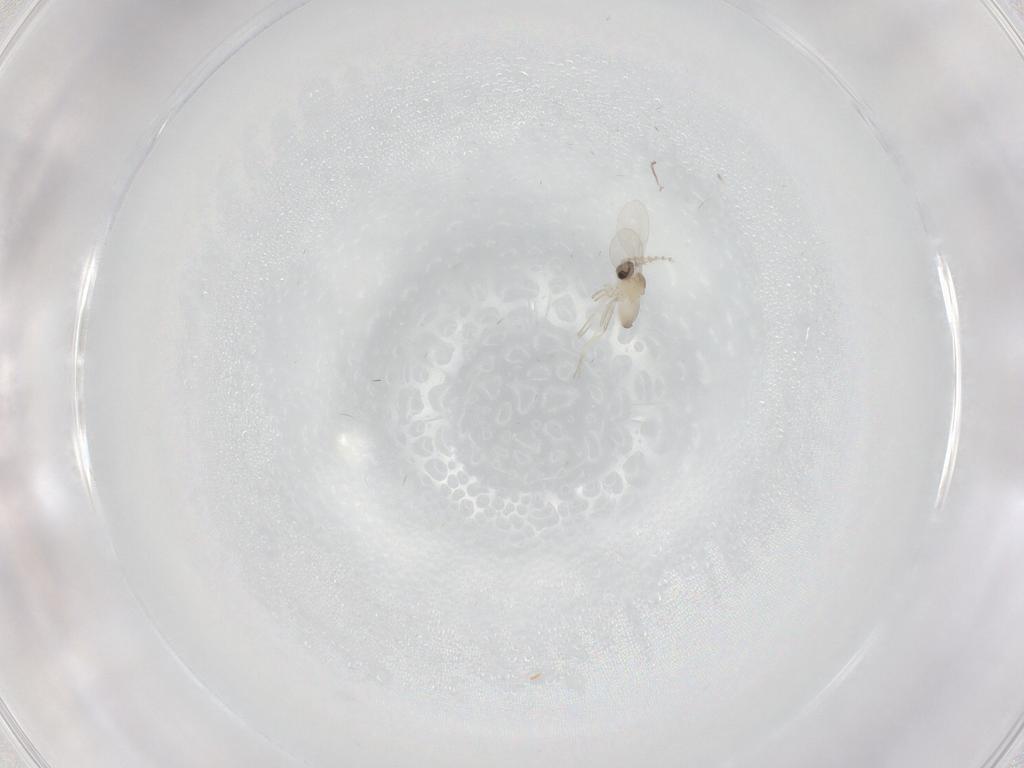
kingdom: Animalia
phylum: Arthropoda
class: Insecta
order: Diptera
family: Cecidomyiidae
